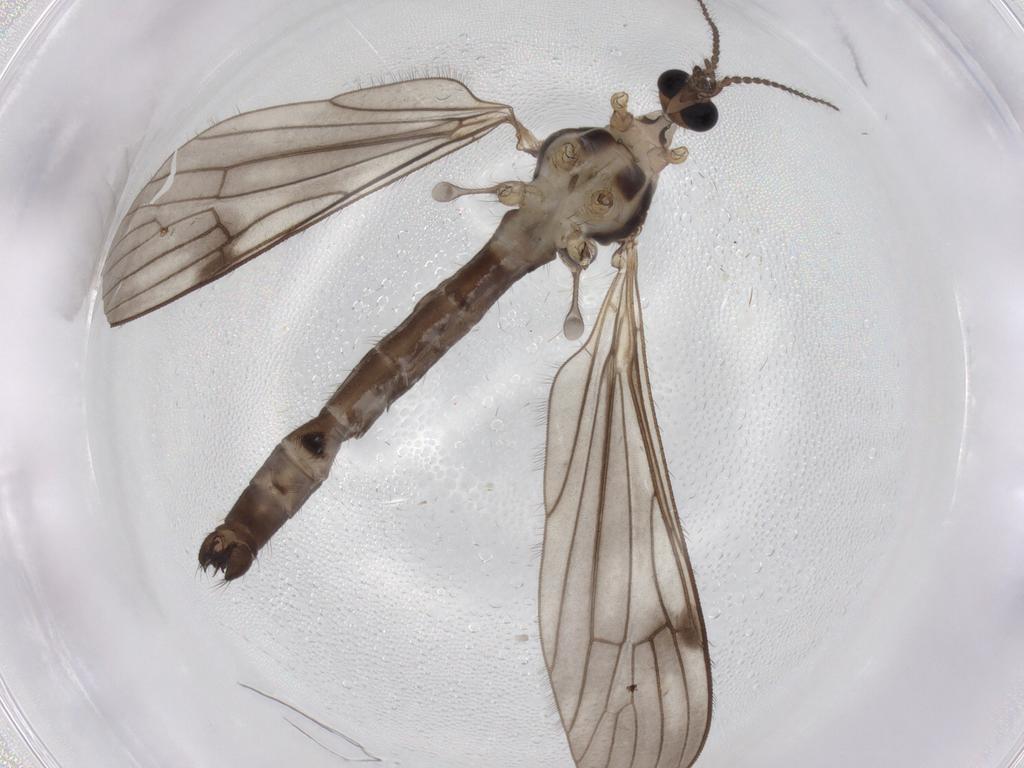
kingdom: Animalia
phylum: Arthropoda
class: Insecta
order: Diptera
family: Limoniidae
